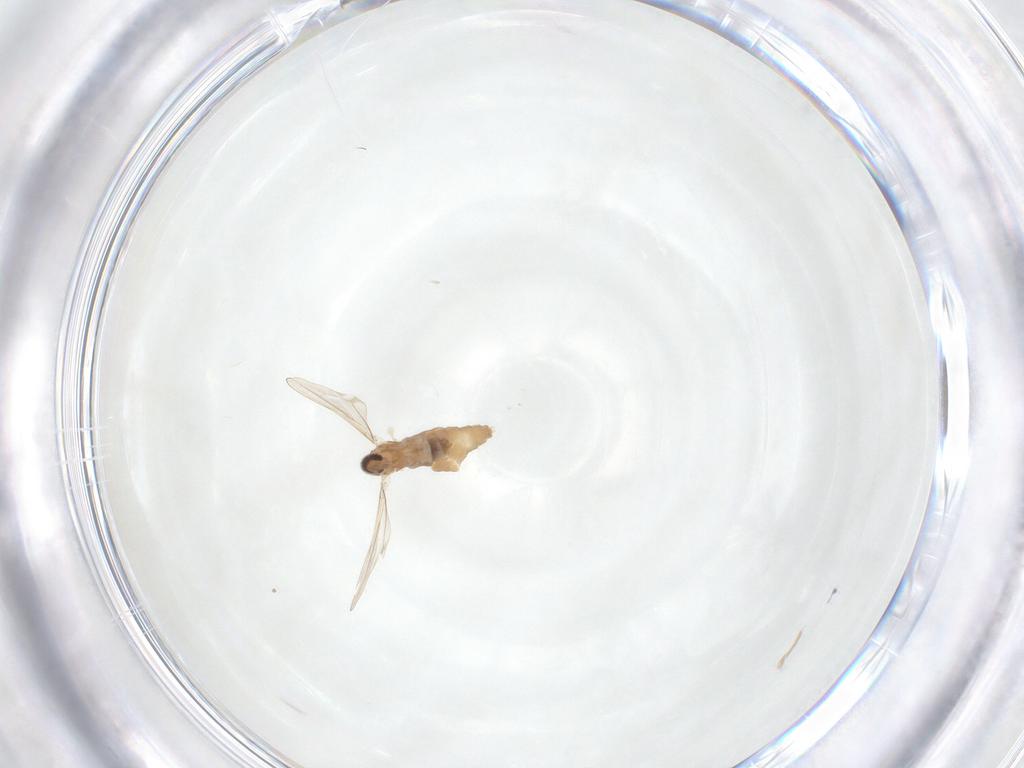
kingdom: Animalia
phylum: Arthropoda
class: Insecta
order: Diptera
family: Cecidomyiidae
